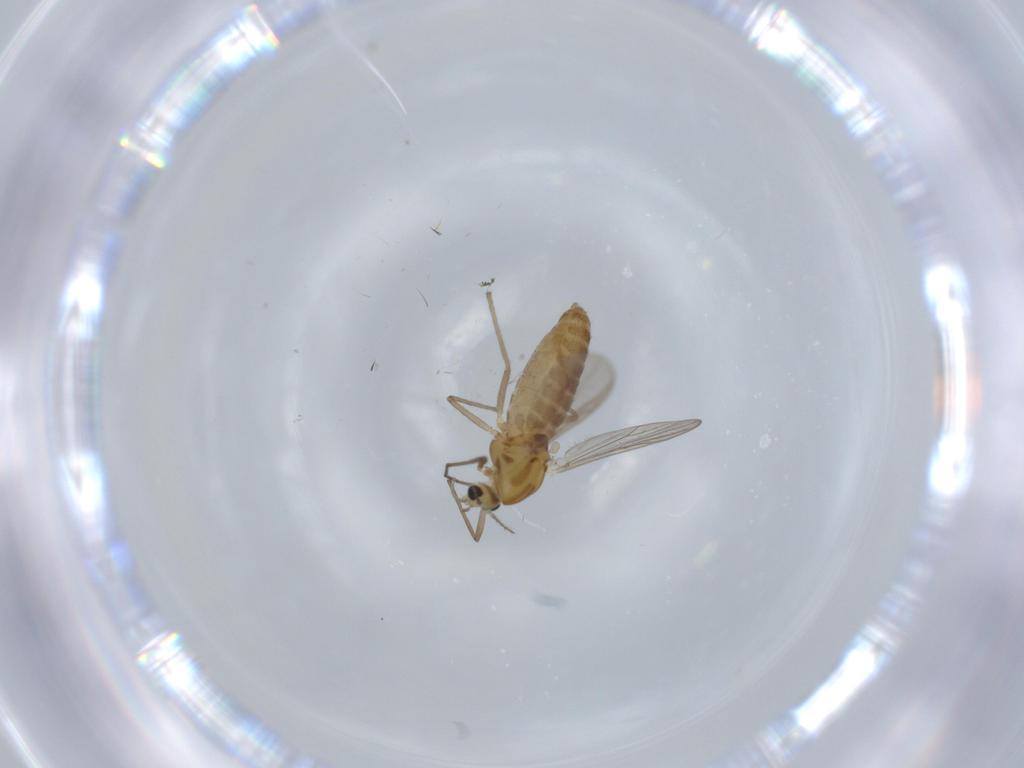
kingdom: Animalia
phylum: Arthropoda
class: Insecta
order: Diptera
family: Chironomidae
